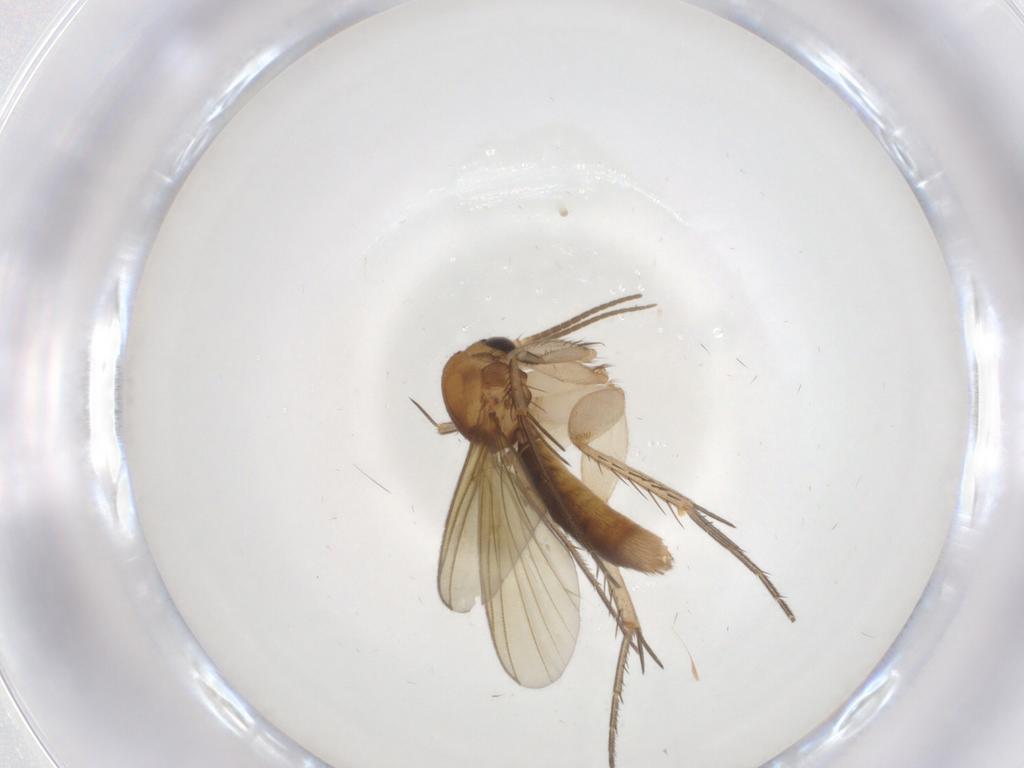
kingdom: Animalia
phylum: Arthropoda
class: Insecta
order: Diptera
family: Mycetophilidae
